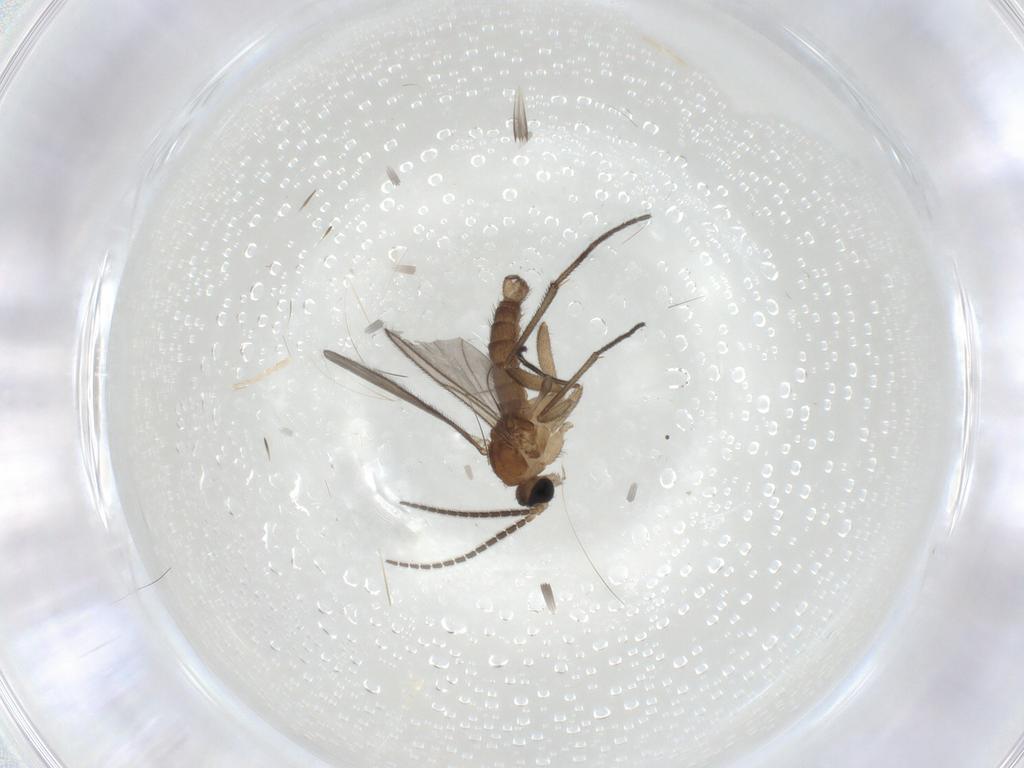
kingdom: Animalia
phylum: Arthropoda
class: Insecta
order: Diptera
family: Sciaridae
